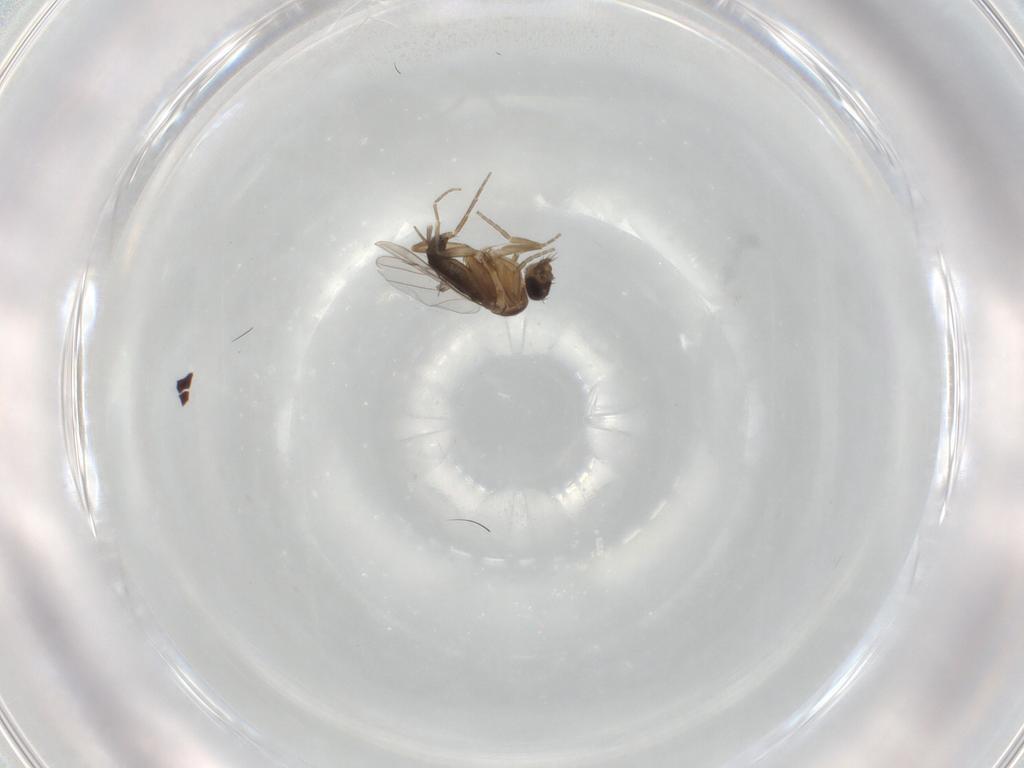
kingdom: Animalia
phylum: Arthropoda
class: Insecta
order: Diptera
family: Phoridae
